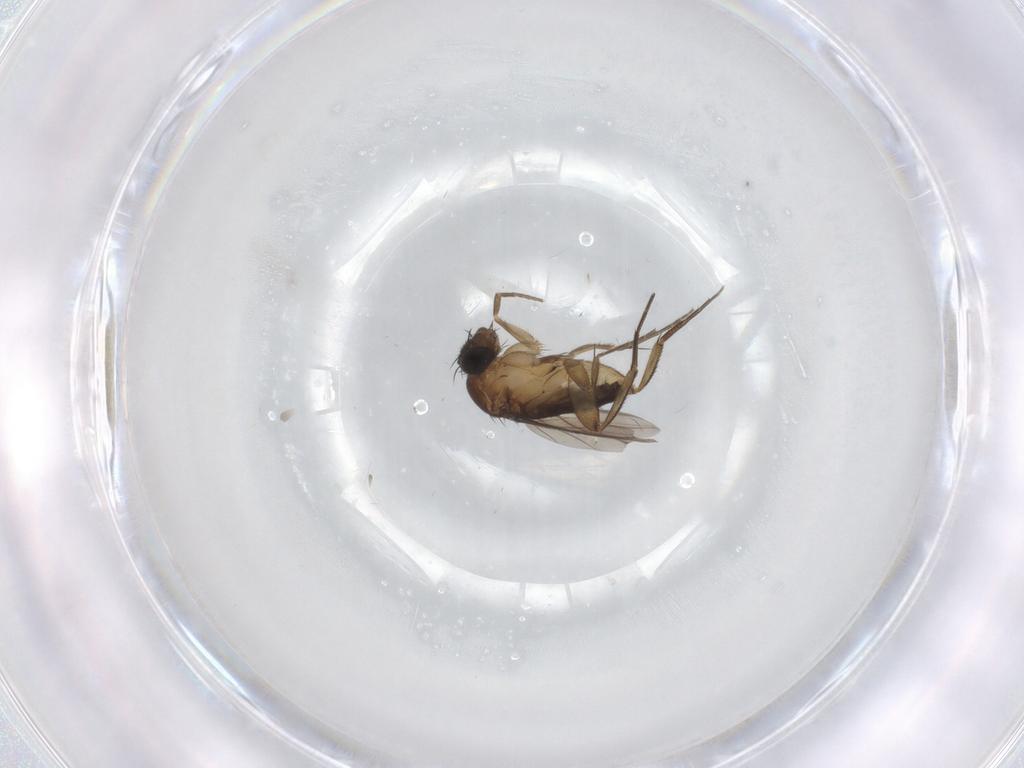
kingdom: Animalia
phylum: Arthropoda
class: Insecta
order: Diptera
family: Phoridae
